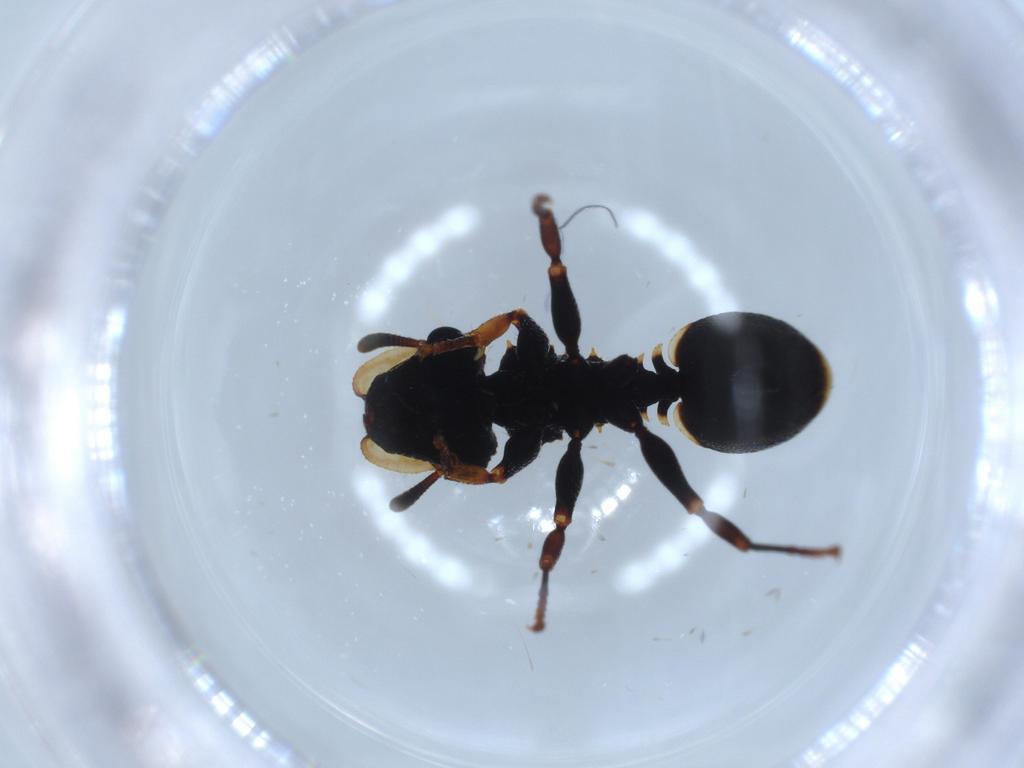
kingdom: Animalia
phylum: Arthropoda
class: Insecta
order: Hymenoptera
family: Formicidae
